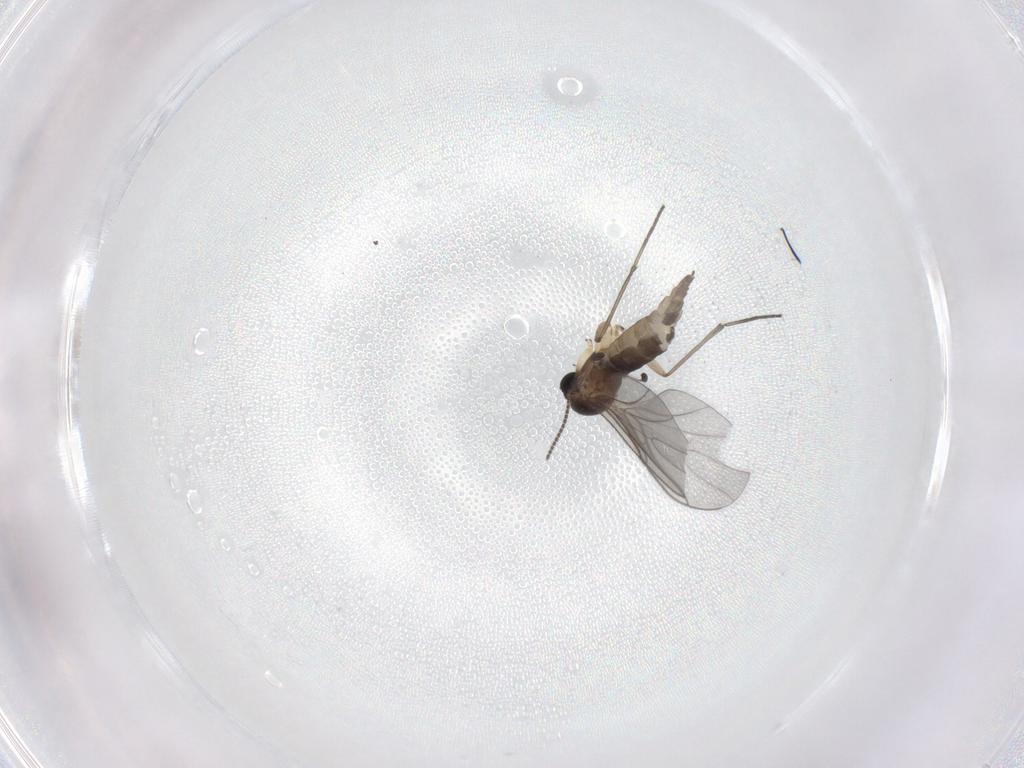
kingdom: Animalia
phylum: Arthropoda
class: Insecta
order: Diptera
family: Sciaridae
